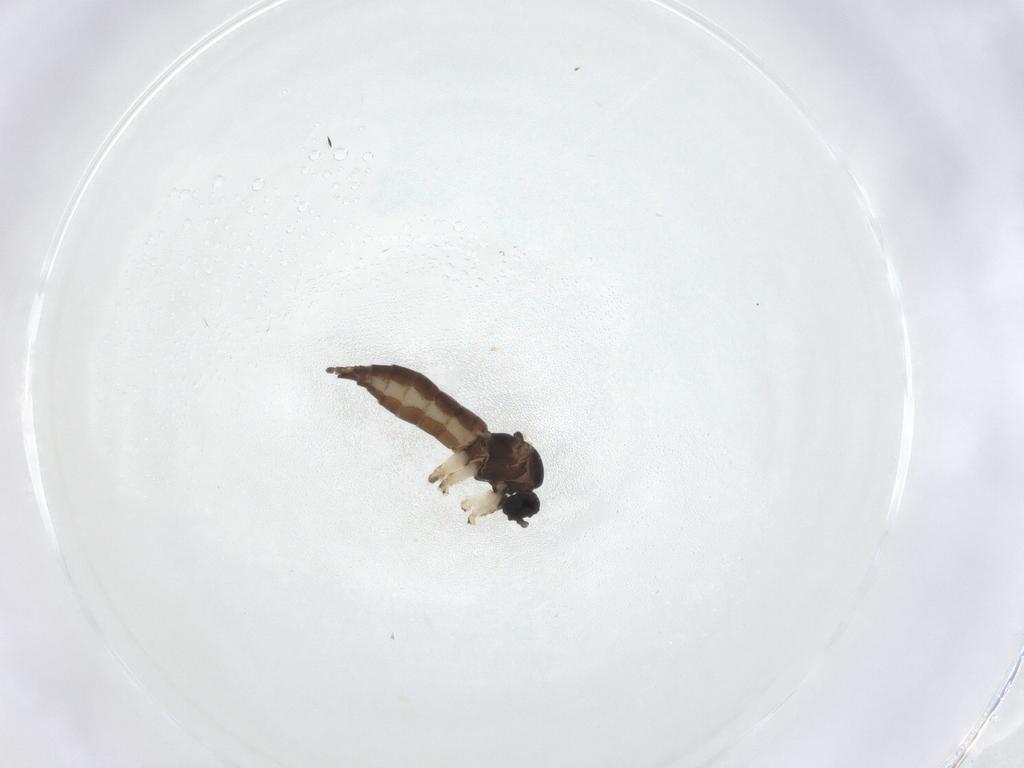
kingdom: Animalia
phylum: Arthropoda
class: Insecta
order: Diptera
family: Sciaridae
